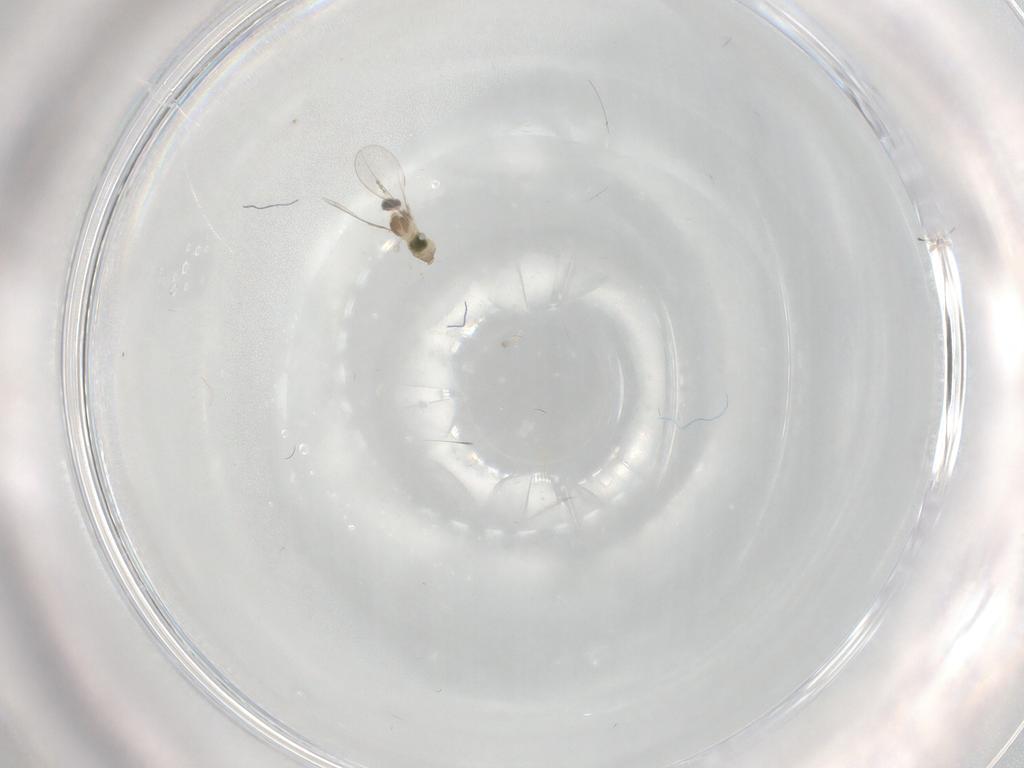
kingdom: Animalia
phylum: Arthropoda
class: Insecta
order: Diptera
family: Cecidomyiidae
